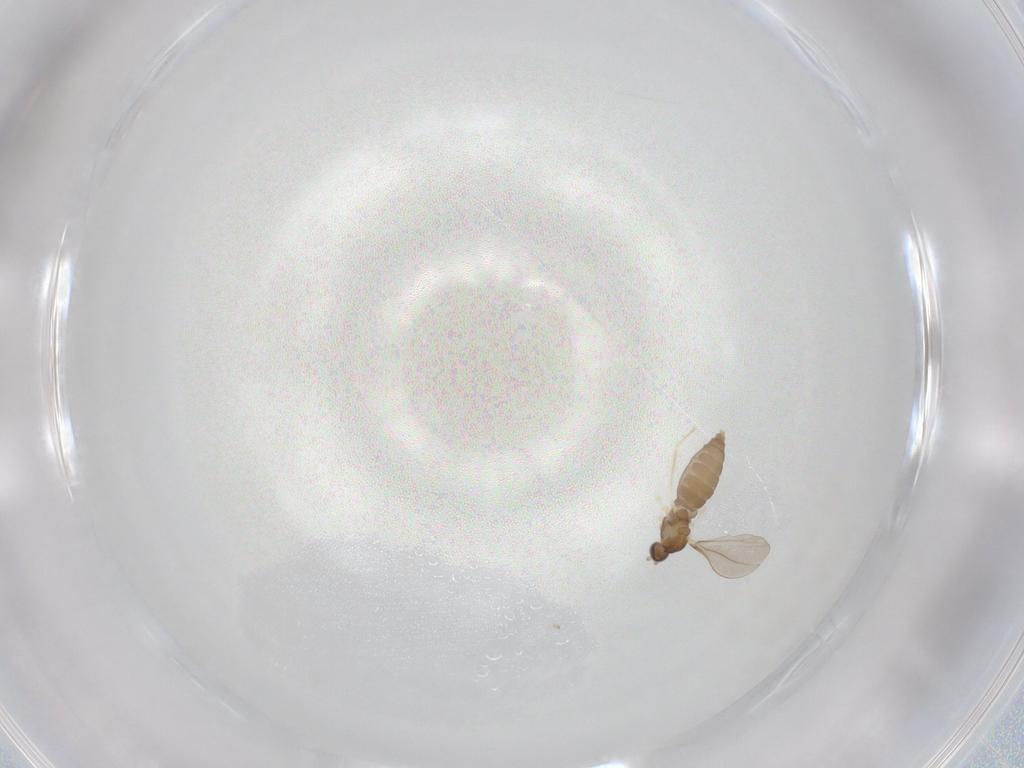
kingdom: Animalia
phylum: Arthropoda
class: Insecta
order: Diptera
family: Cecidomyiidae
